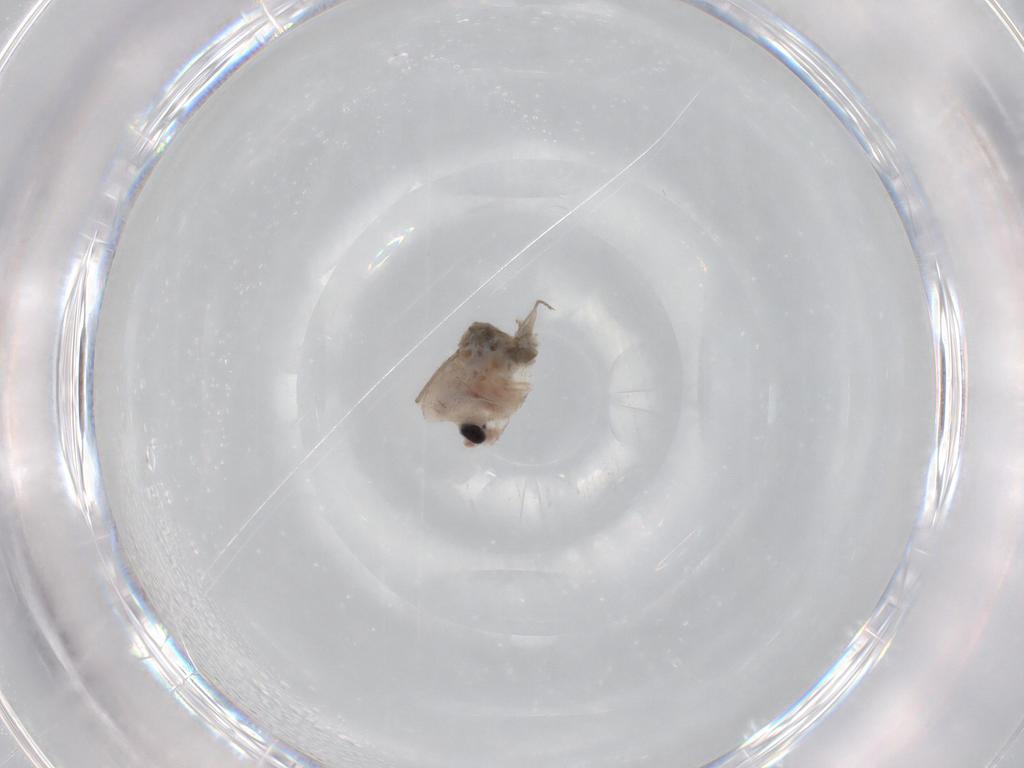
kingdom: Animalia
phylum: Arthropoda
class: Insecta
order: Diptera
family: Chironomidae
